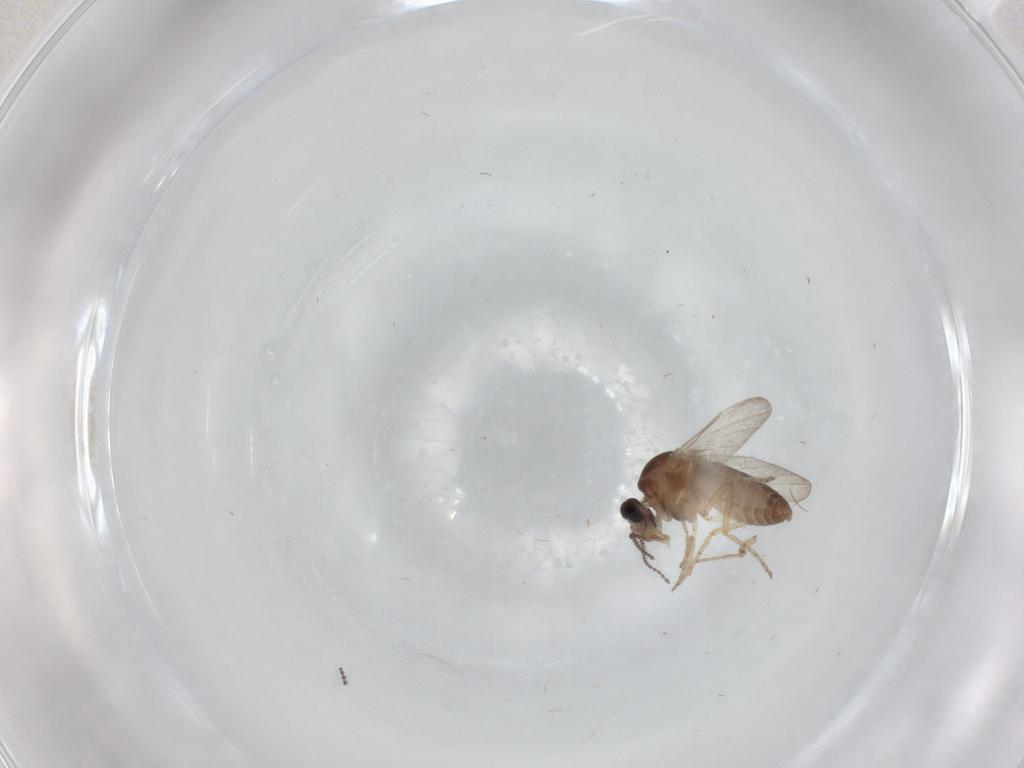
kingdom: Animalia
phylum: Arthropoda
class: Insecta
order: Diptera
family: Ceratopogonidae
